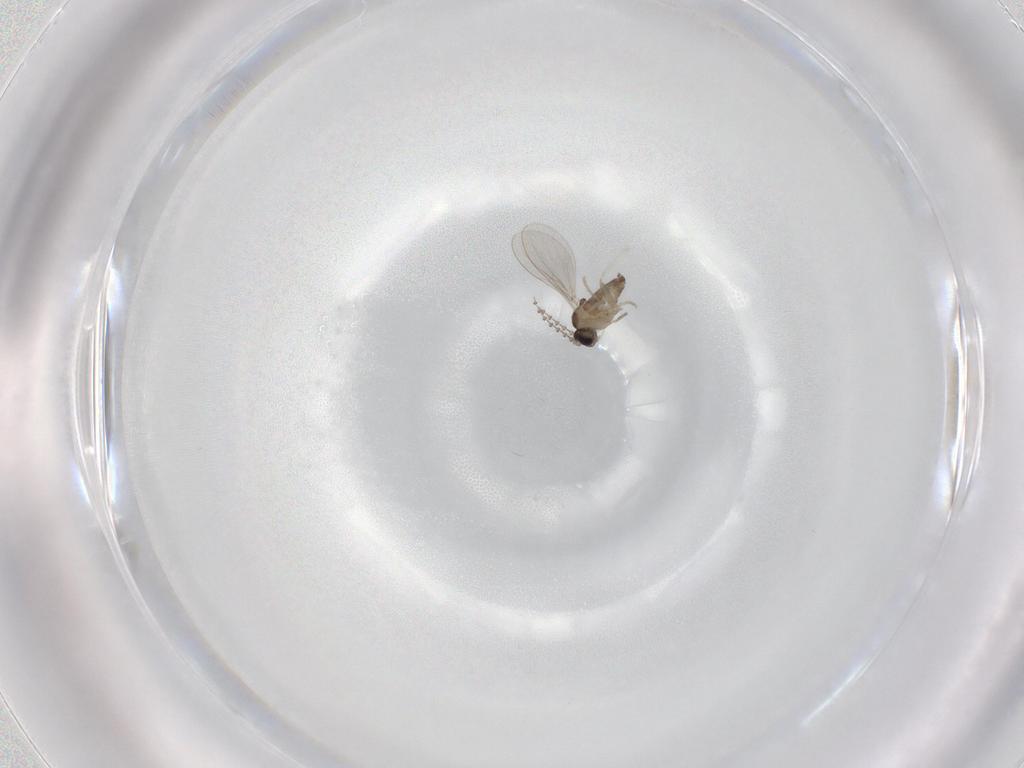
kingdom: Animalia
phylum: Arthropoda
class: Insecta
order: Diptera
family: Cecidomyiidae
